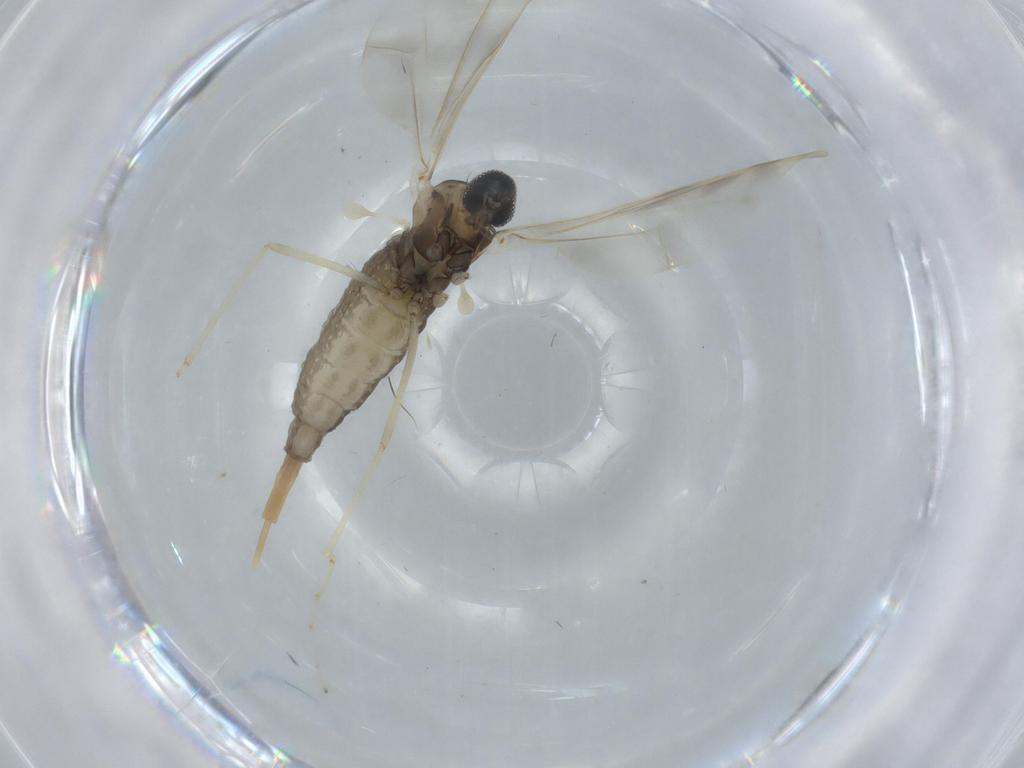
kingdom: Animalia
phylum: Arthropoda
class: Insecta
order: Diptera
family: Cecidomyiidae
